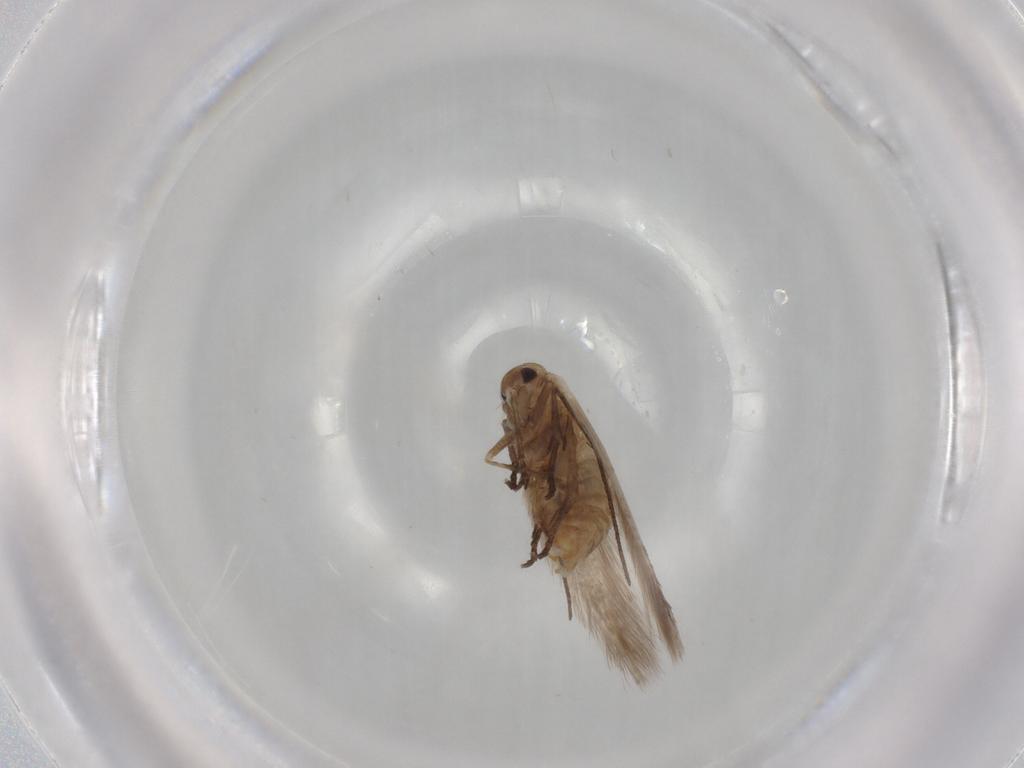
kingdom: Animalia
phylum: Arthropoda
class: Insecta
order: Lepidoptera
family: Bucculatricidae
